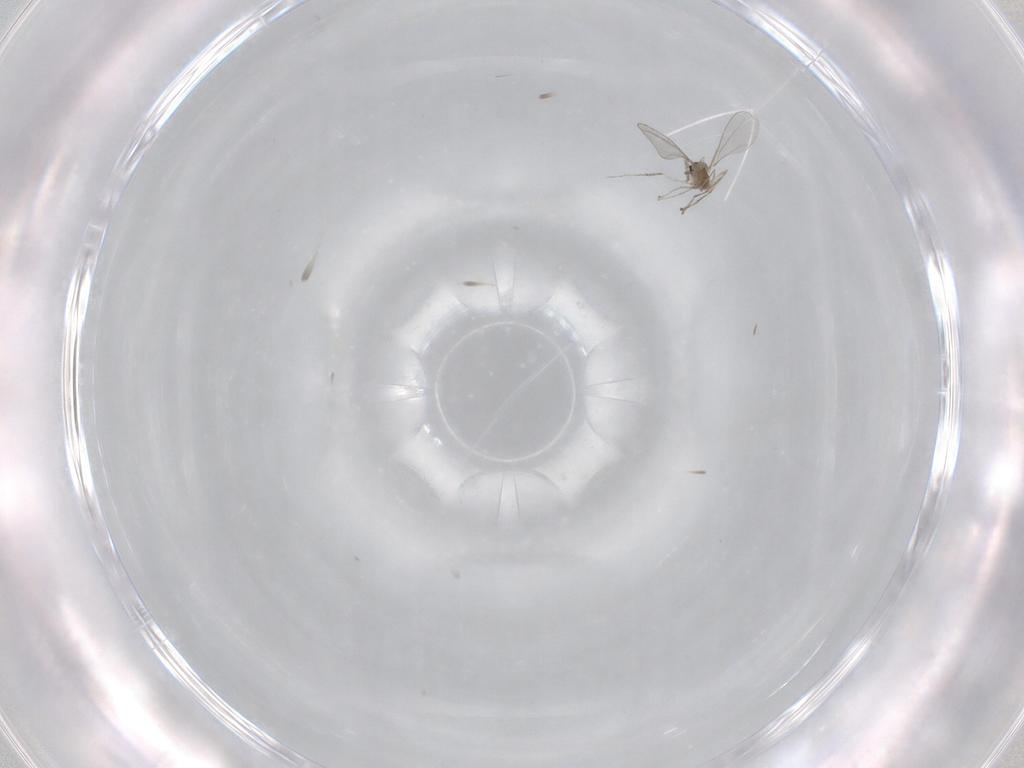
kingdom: Animalia
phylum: Arthropoda
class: Insecta
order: Diptera
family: Cecidomyiidae
